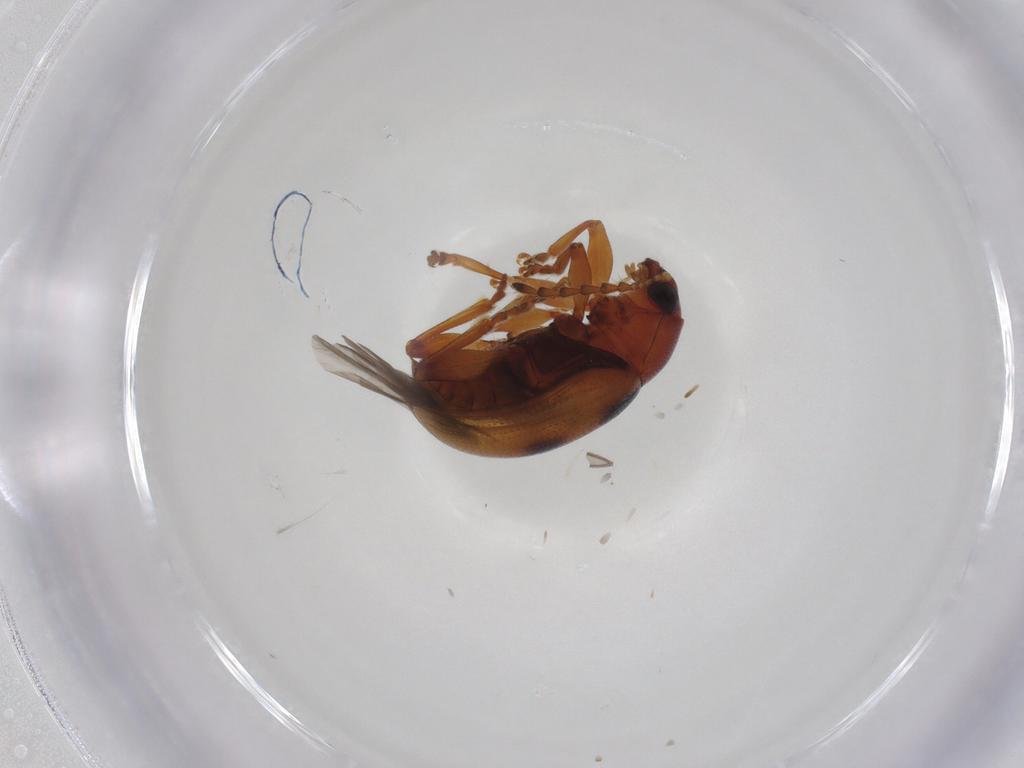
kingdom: Animalia
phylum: Arthropoda
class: Insecta
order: Coleoptera
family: Chrysomelidae
